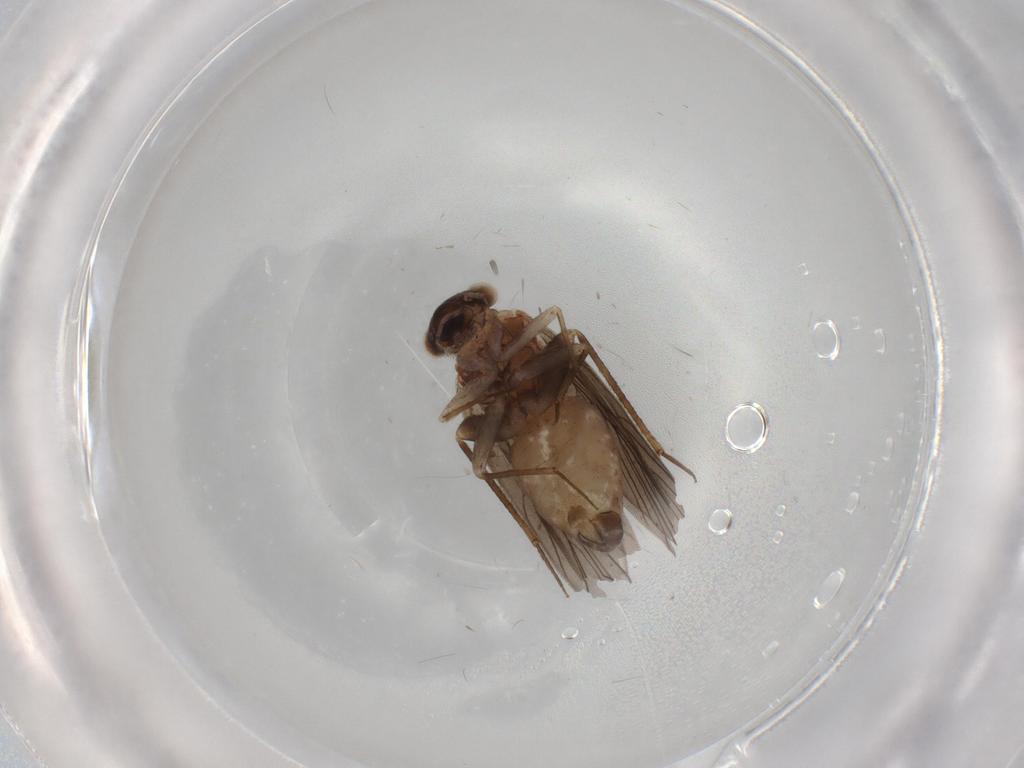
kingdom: Animalia
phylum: Arthropoda
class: Insecta
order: Psocodea
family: Lepidopsocidae
